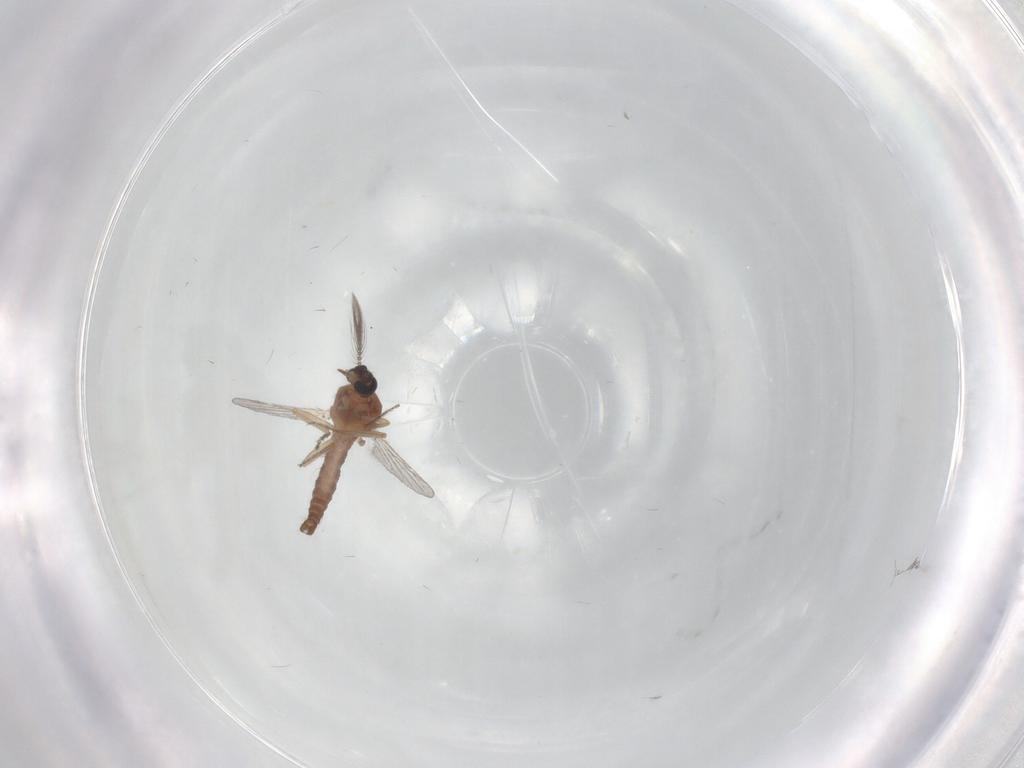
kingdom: Animalia
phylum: Arthropoda
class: Insecta
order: Diptera
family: Ceratopogonidae
